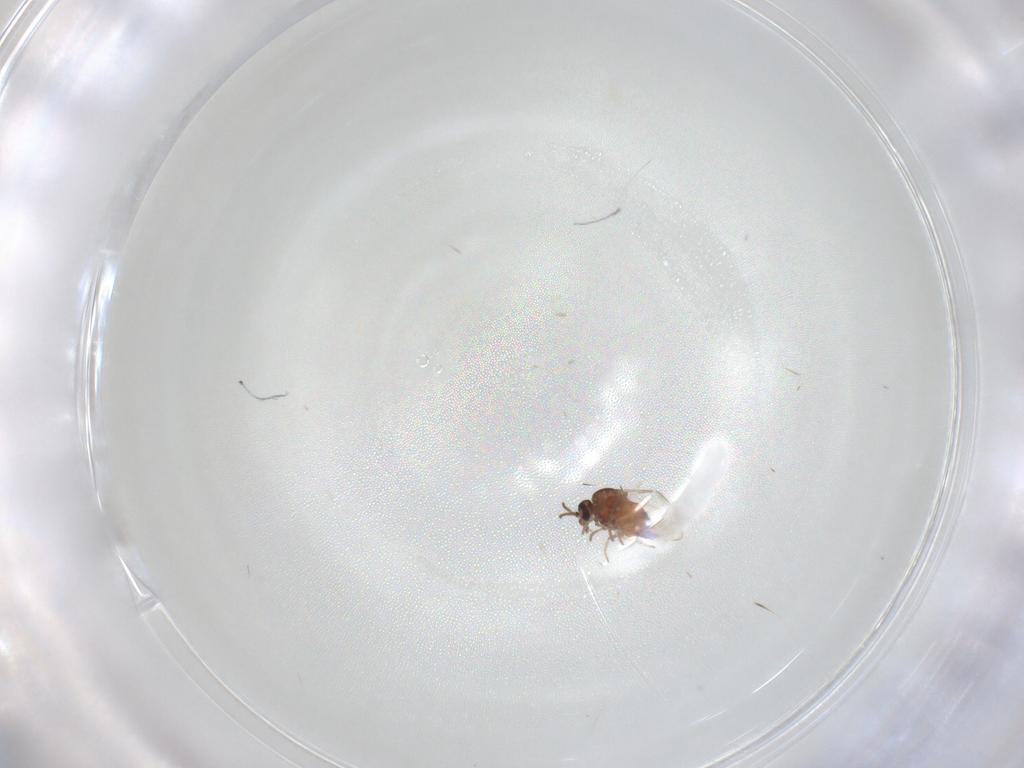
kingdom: Animalia
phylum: Arthropoda
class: Insecta
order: Diptera
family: Ceratopogonidae
